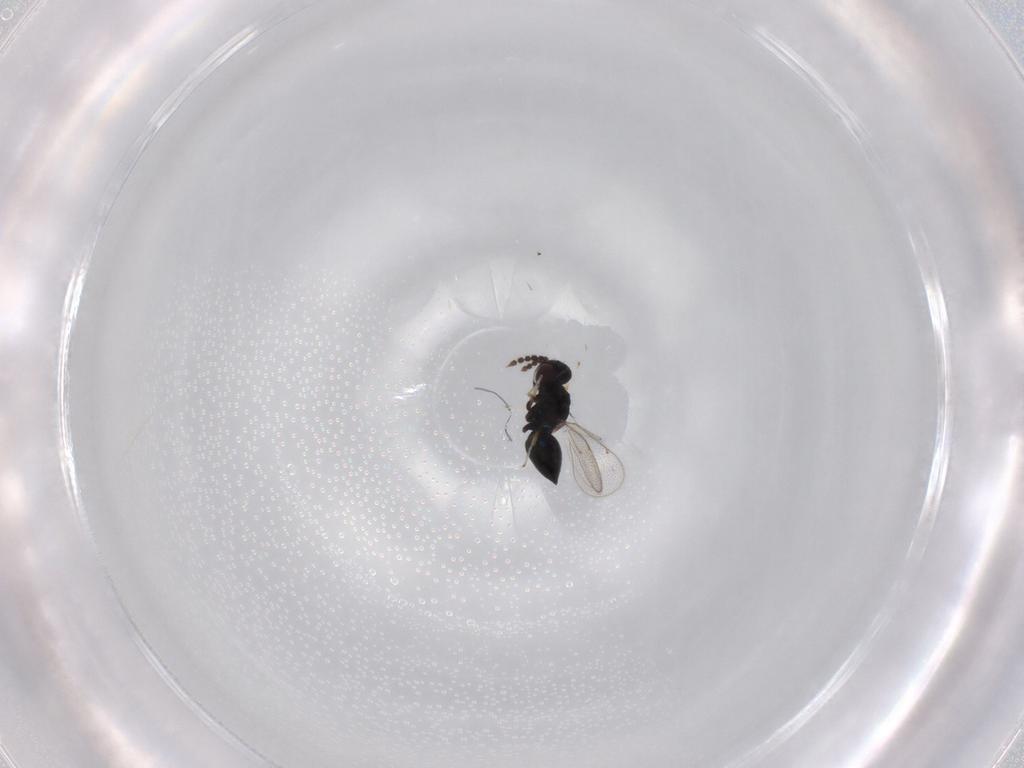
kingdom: Animalia
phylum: Arthropoda
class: Insecta
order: Hymenoptera
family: Eulophidae
